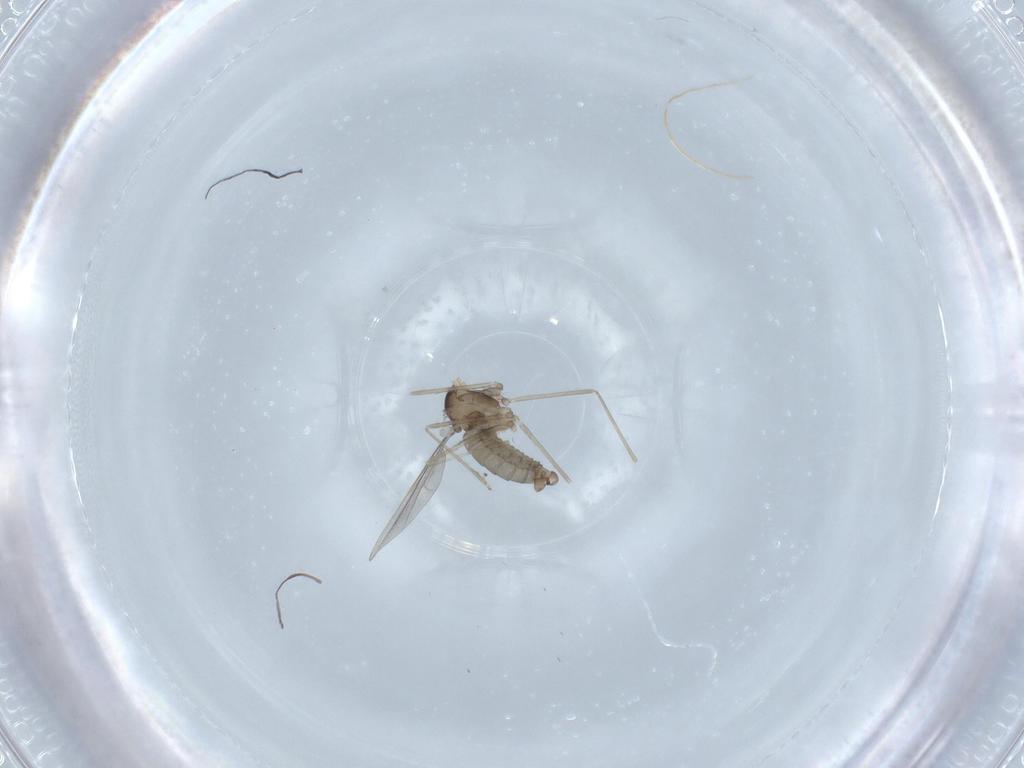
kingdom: Animalia
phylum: Arthropoda
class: Insecta
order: Diptera
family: Cecidomyiidae
